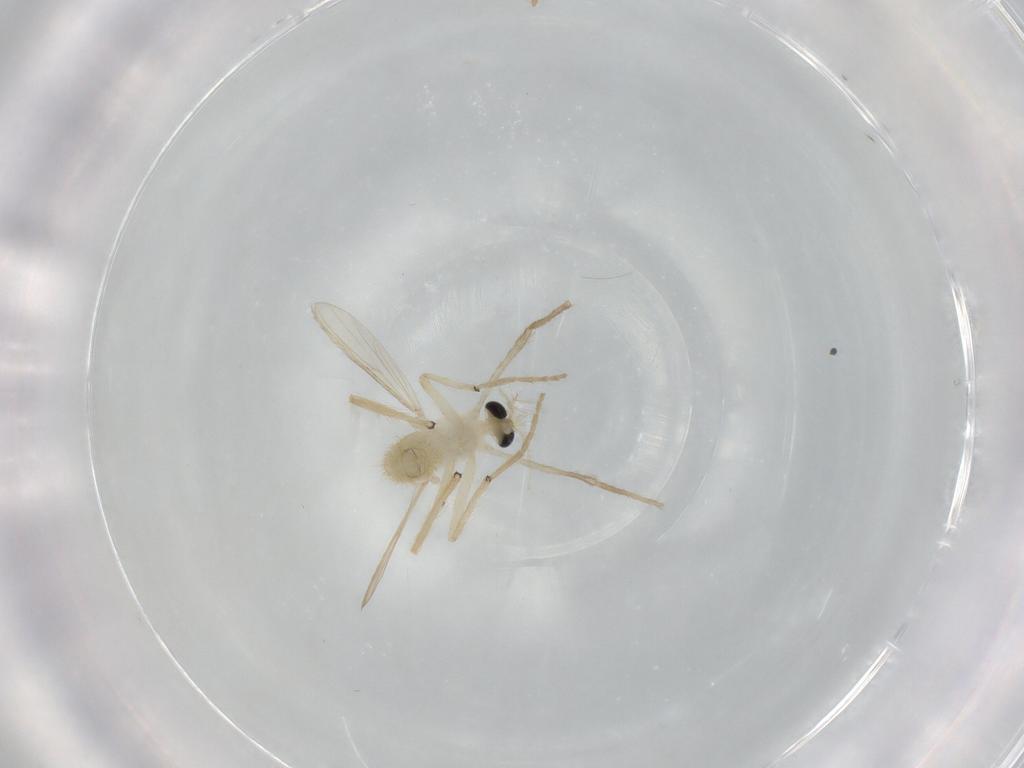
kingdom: Animalia
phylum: Arthropoda
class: Insecta
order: Diptera
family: Chironomidae
